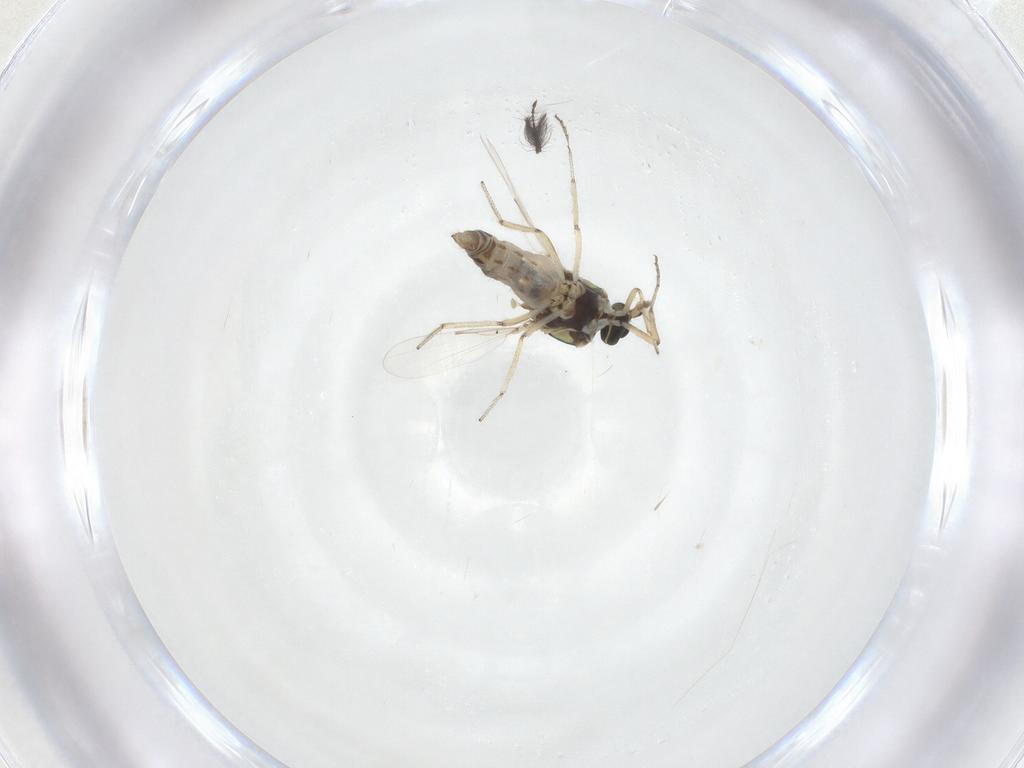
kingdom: Animalia
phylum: Arthropoda
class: Insecta
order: Diptera
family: Ceratopogonidae
